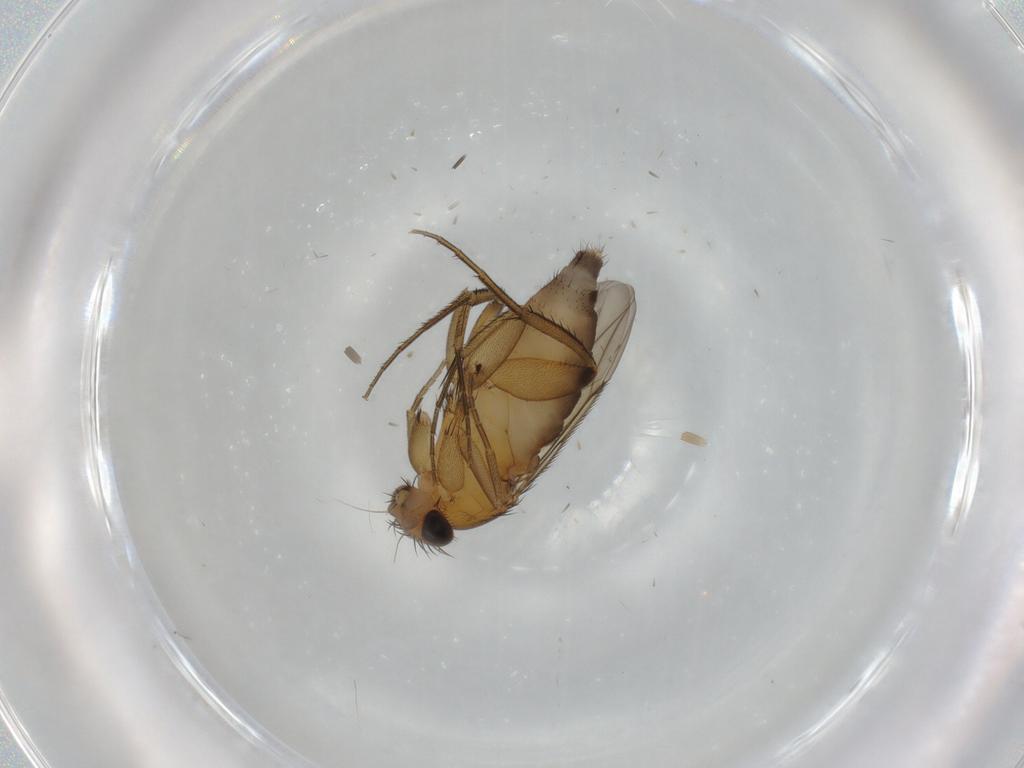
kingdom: Animalia
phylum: Arthropoda
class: Insecta
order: Diptera
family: Phoridae
